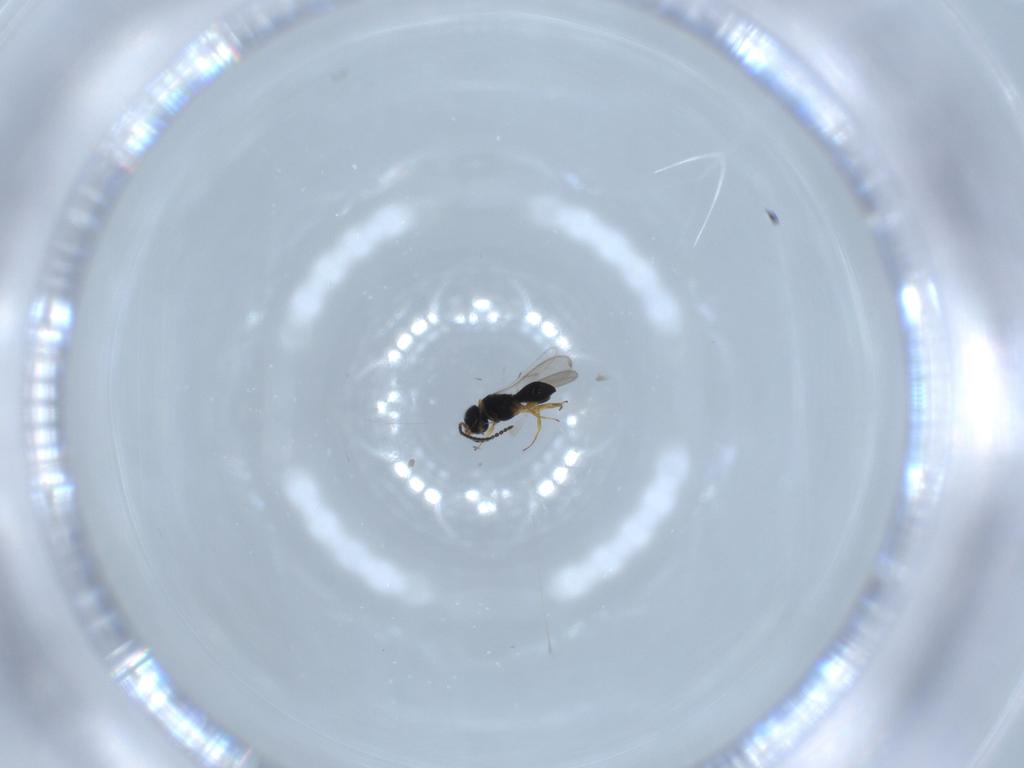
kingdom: Animalia
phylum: Arthropoda
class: Insecta
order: Hymenoptera
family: Scelionidae
